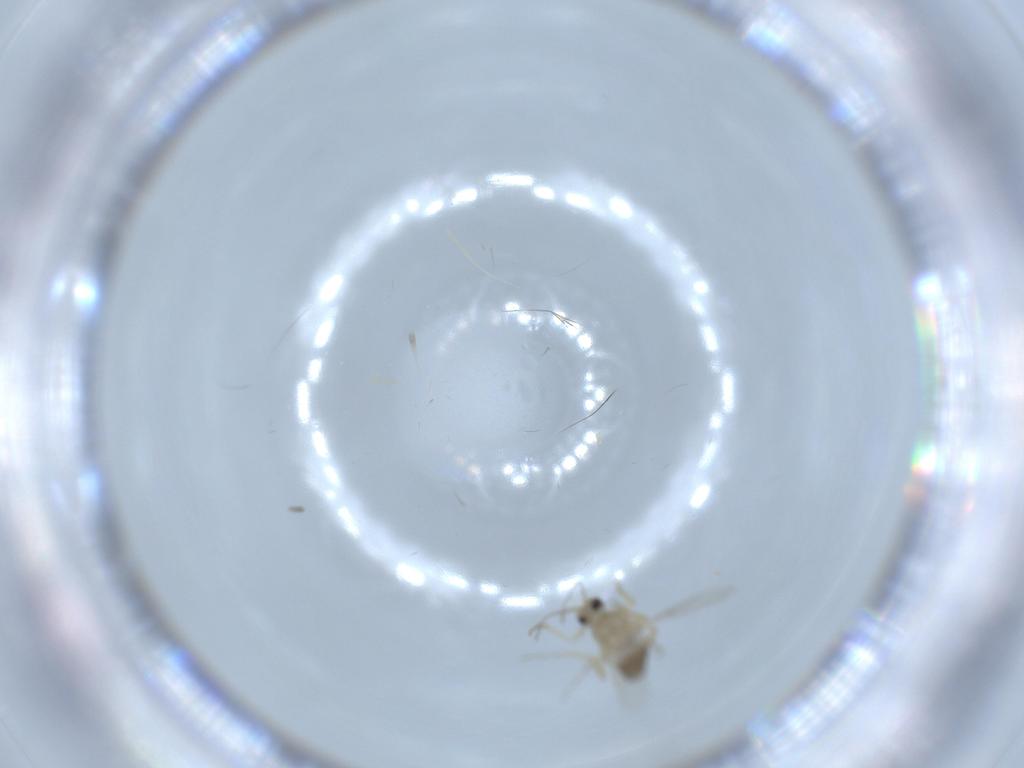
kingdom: Animalia
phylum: Arthropoda
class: Insecta
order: Diptera
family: Ceratopogonidae
